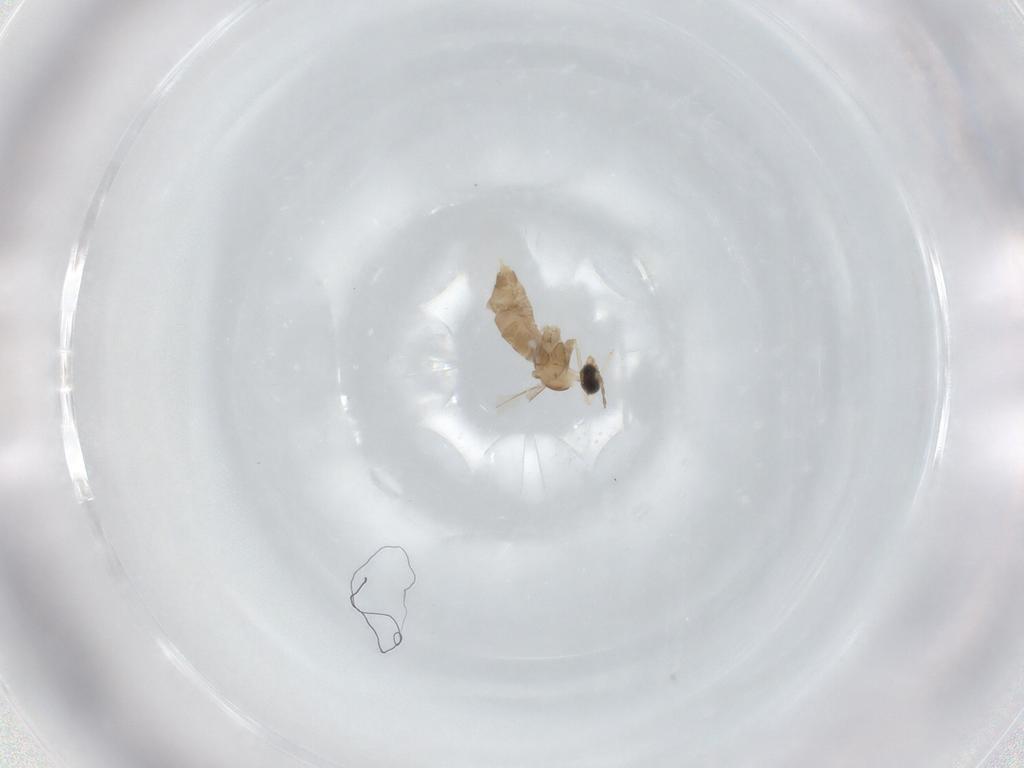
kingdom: Animalia
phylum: Arthropoda
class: Insecta
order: Diptera
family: Cecidomyiidae
